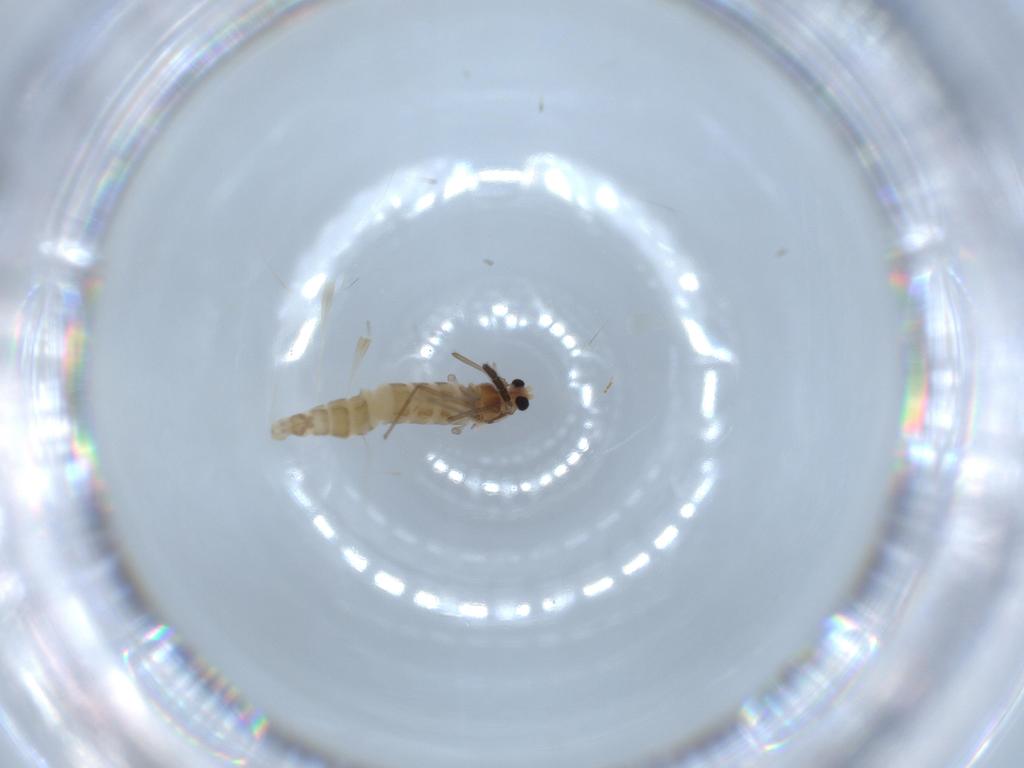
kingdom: Animalia
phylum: Arthropoda
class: Insecta
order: Diptera
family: Chironomidae
